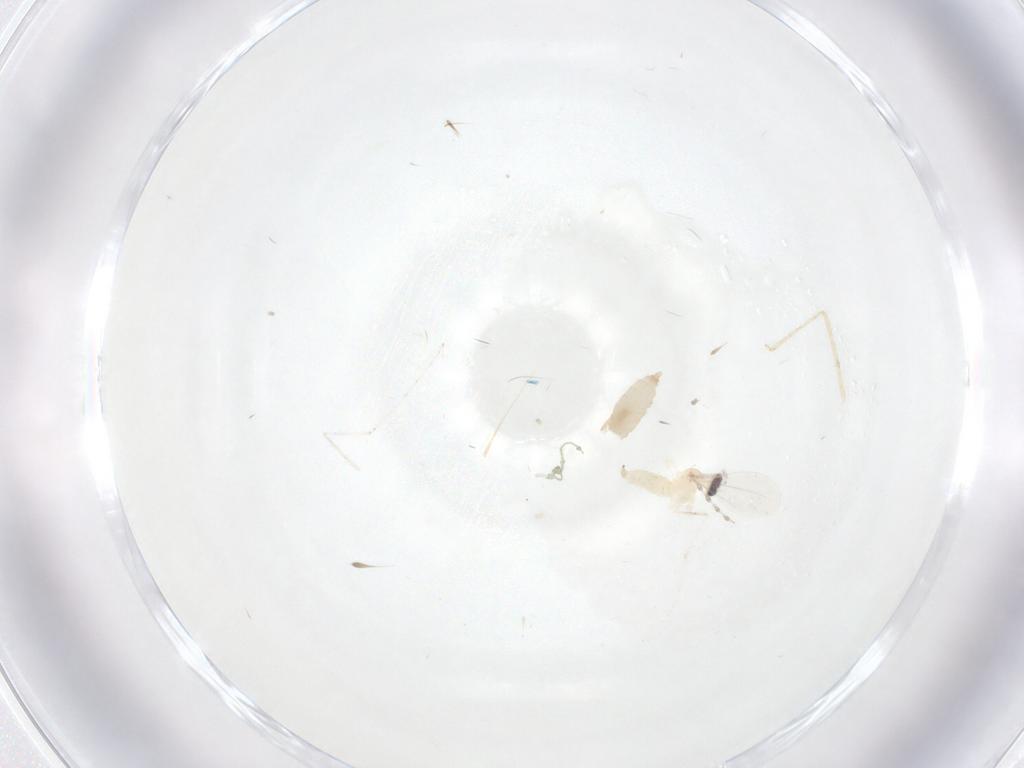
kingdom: Animalia
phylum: Arthropoda
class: Insecta
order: Diptera
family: Cecidomyiidae
